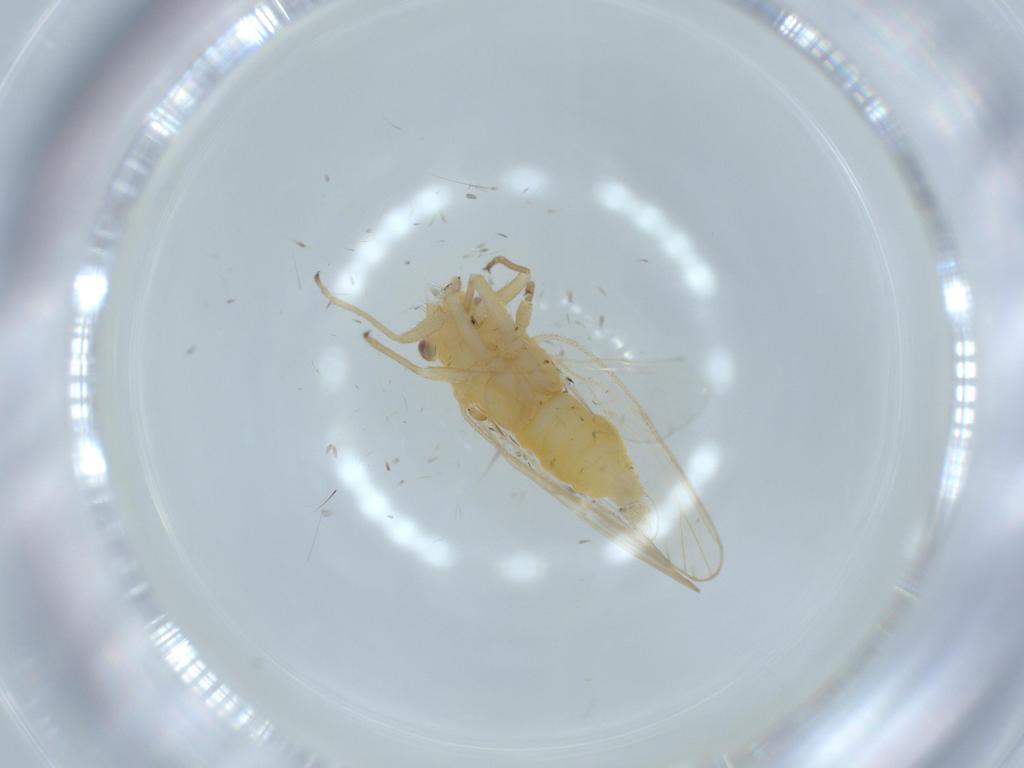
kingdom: Animalia
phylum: Arthropoda
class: Insecta
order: Hemiptera
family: Psyllidae
